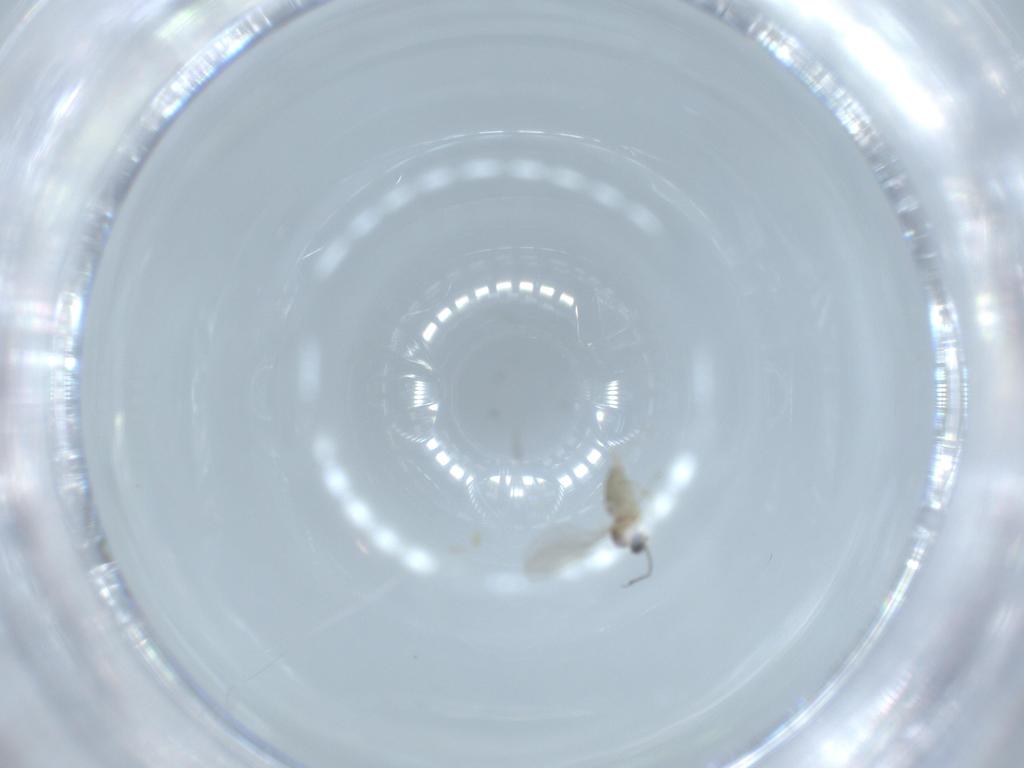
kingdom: Animalia
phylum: Arthropoda
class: Insecta
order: Diptera
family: Cecidomyiidae
